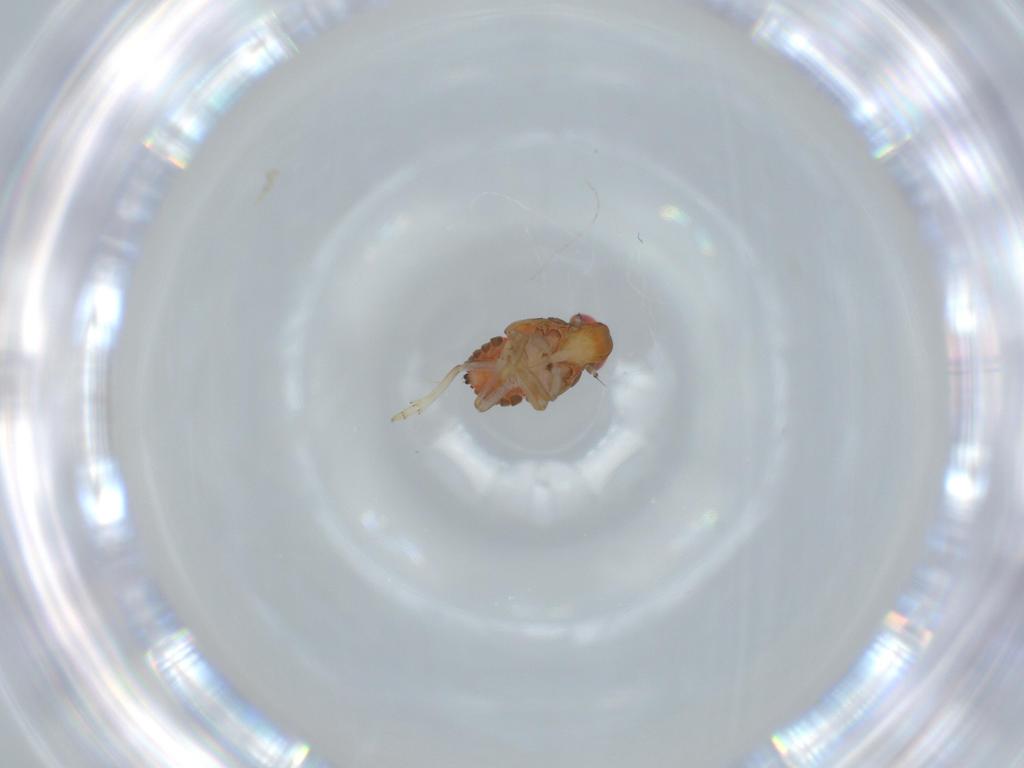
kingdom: Animalia
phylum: Arthropoda
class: Insecta
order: Hemiptera
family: Issidae
